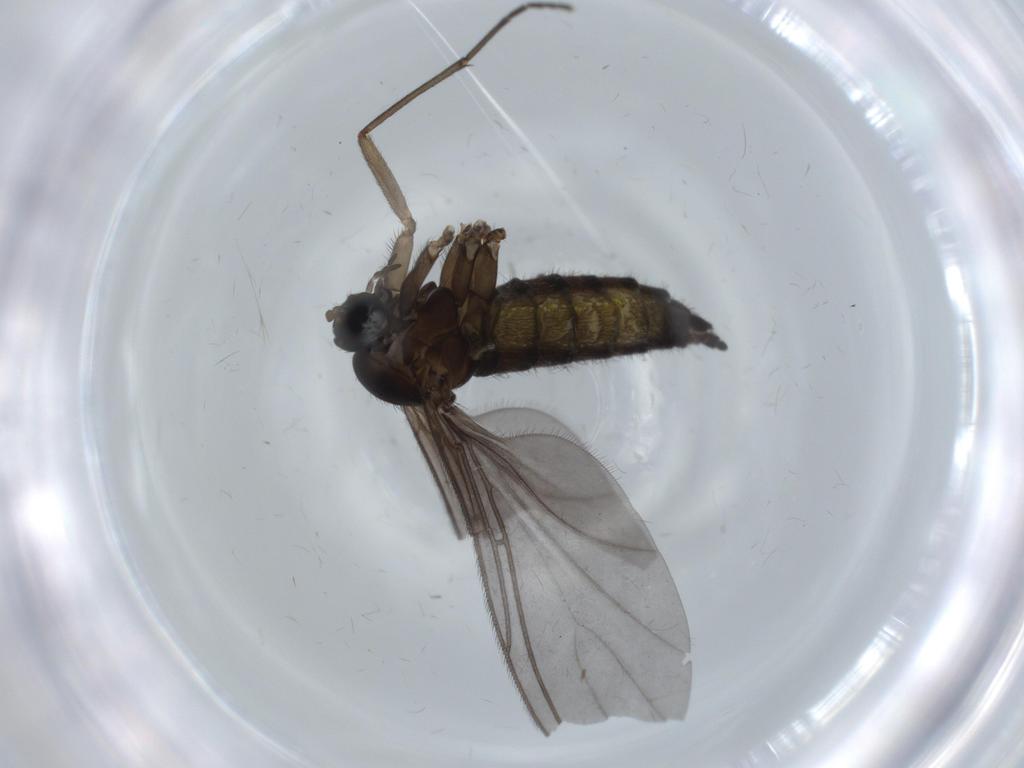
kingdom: Animalia
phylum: Arthropoda
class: Insecta
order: Diptera
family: Sciaridae
